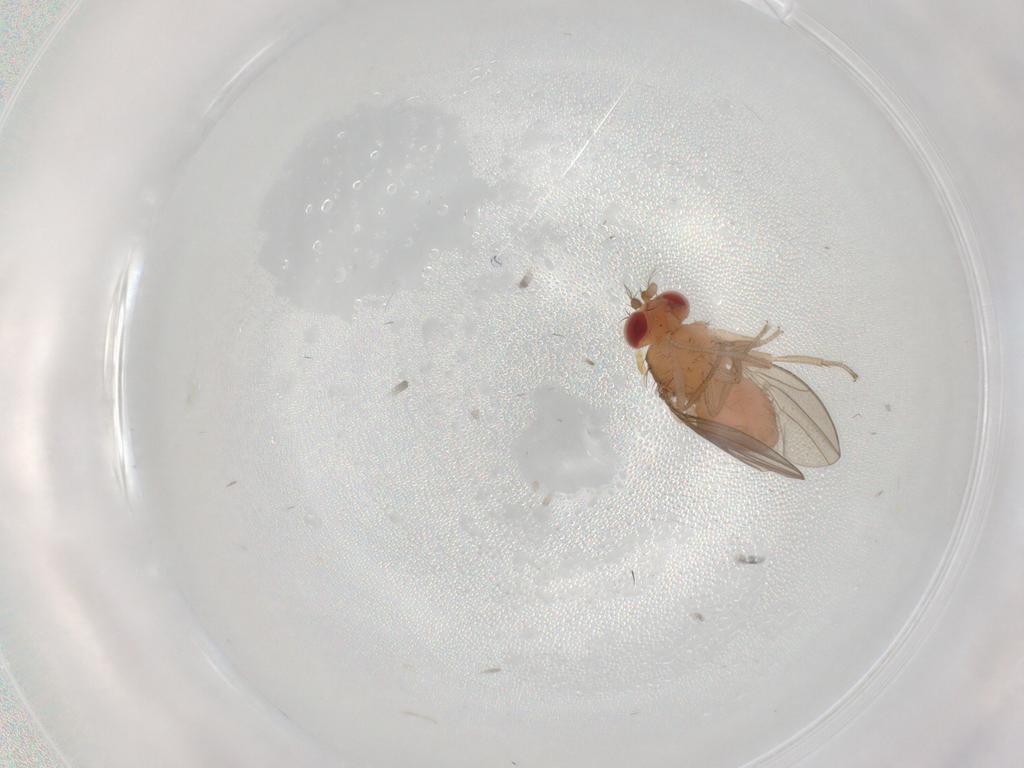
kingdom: Animalia
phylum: Arthropoda
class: Insecta
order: Diptera
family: Drosophilidae
